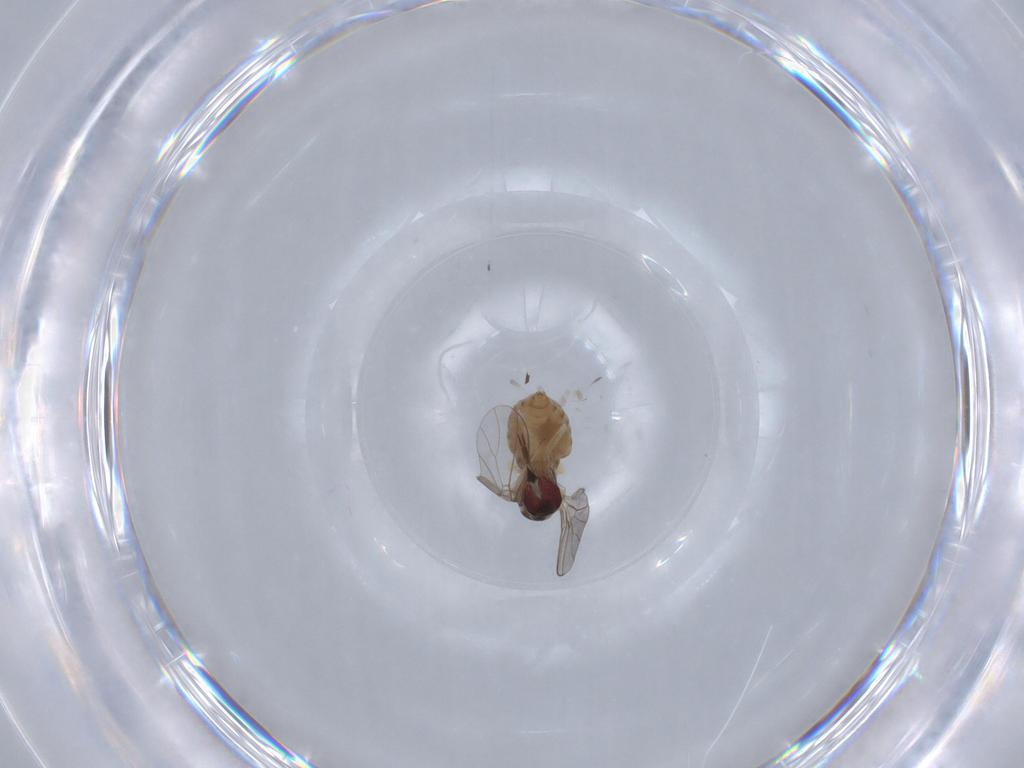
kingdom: Animalia
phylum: Arthropoda
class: Insecta
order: Diptera
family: Mythicomyiidae
